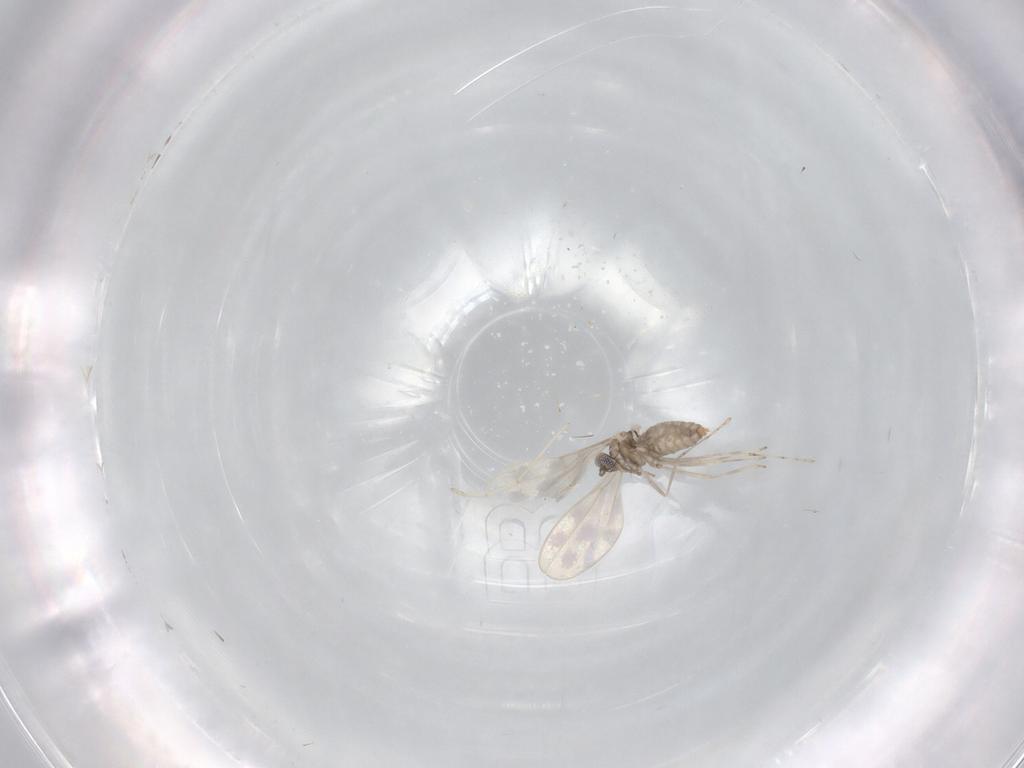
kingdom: Animalia
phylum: Arthropoda
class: Insecta
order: Diptera
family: Cecidomyiidae
